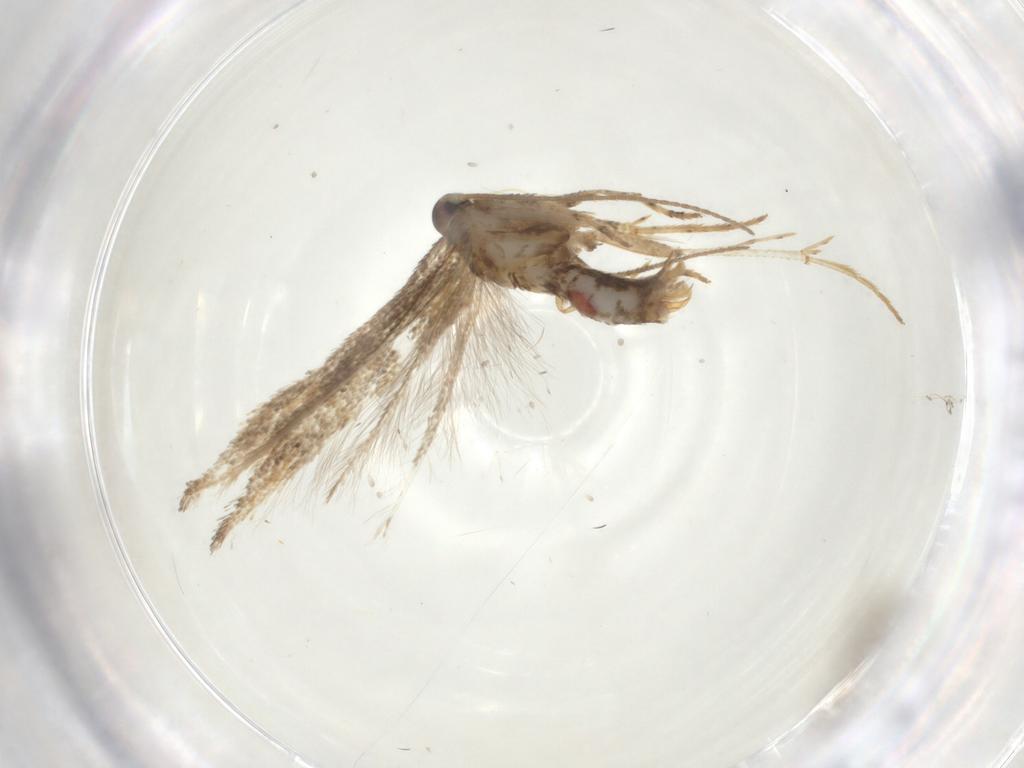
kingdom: Animalia
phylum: Arthropoda
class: Insecta
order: Lepidoptera
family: Cosmopterigidae
